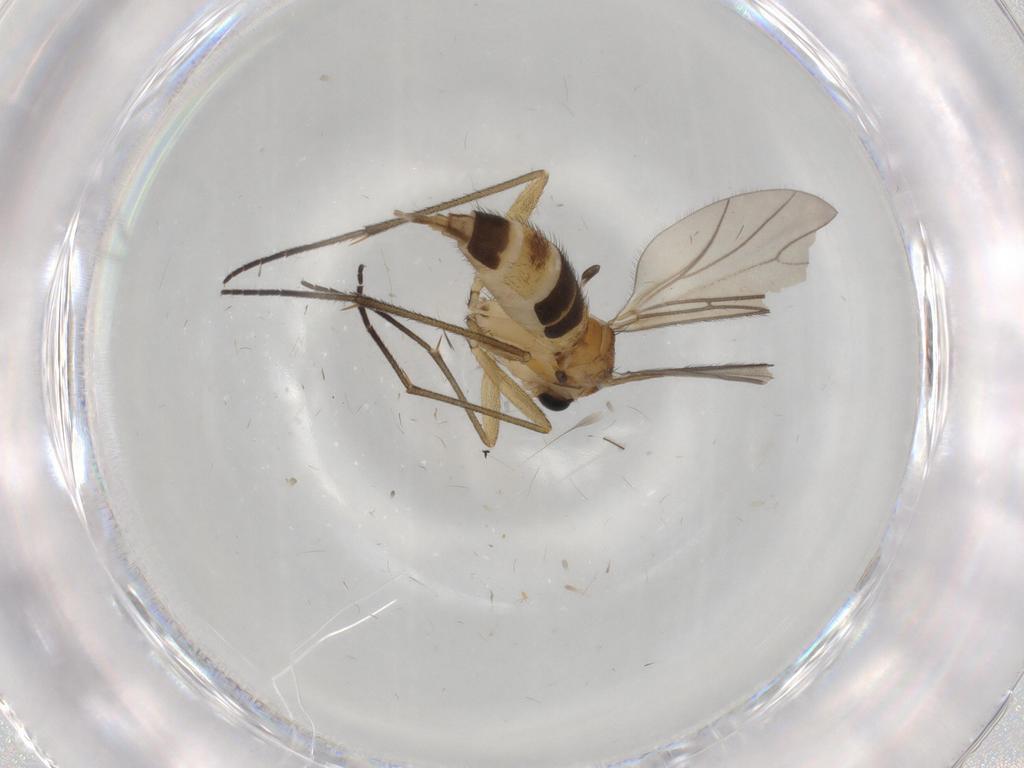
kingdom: Animalia
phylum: Arthropoda
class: Insecta
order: Diptera
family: Sciaridae
